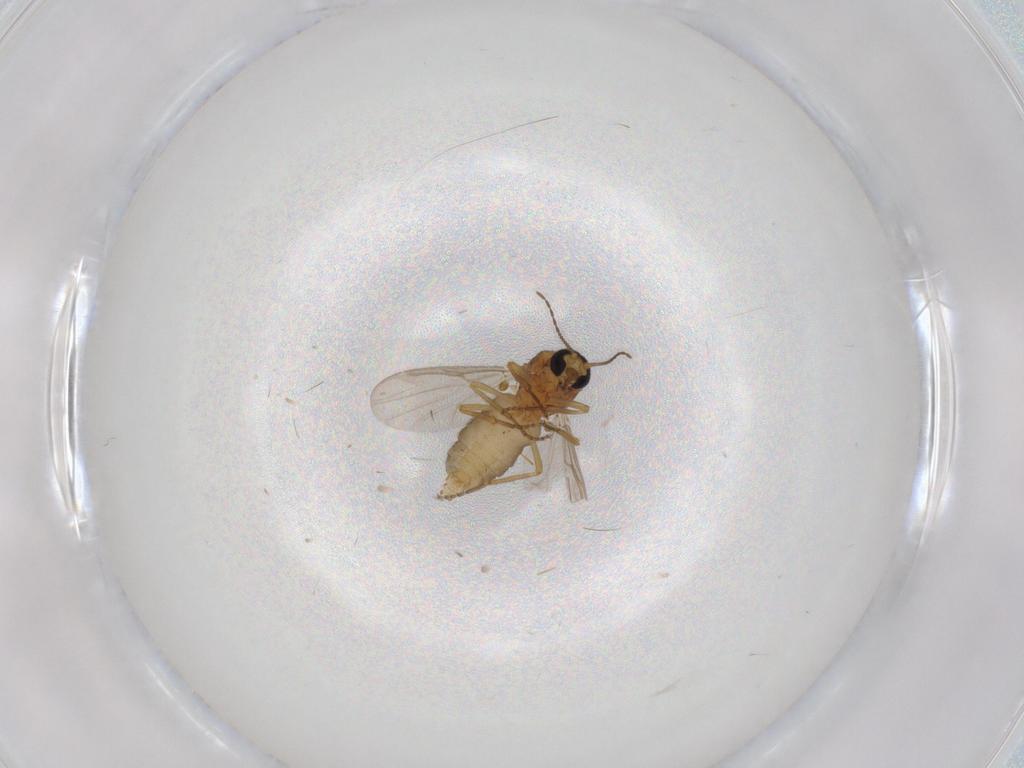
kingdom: Animalia
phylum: Arthropoda
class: Insecta
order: Diptera
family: Ceratopogonidae
